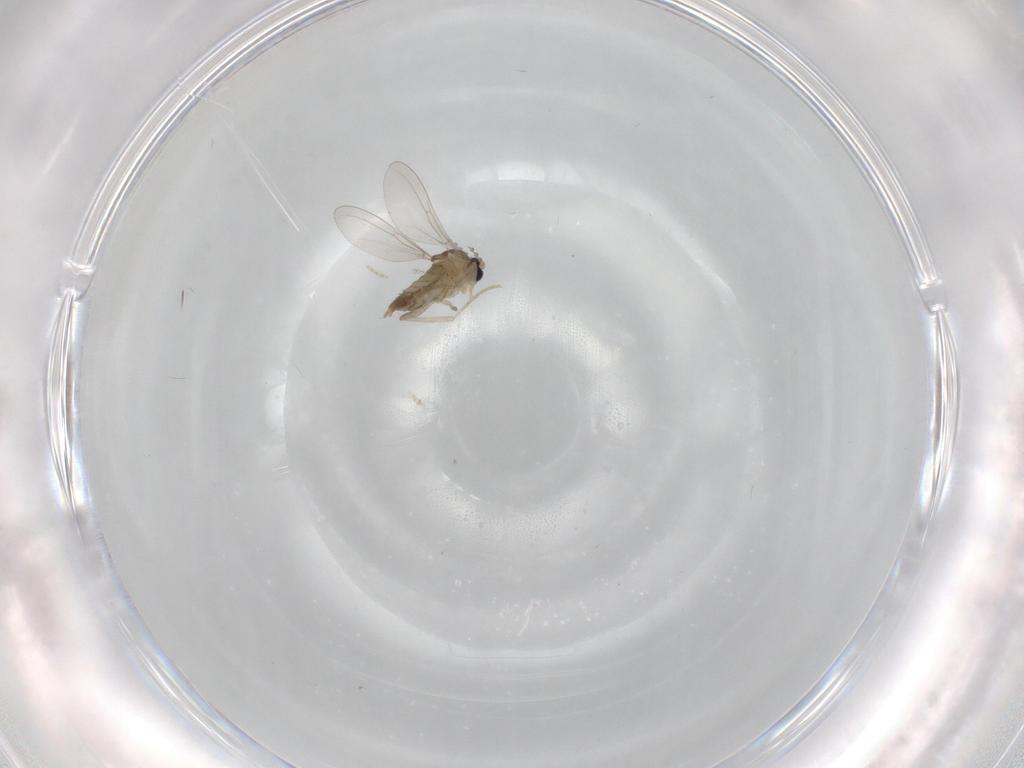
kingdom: Animalia
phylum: Arthropoda
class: Insecta
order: Diptera
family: Cecidomyiidae
